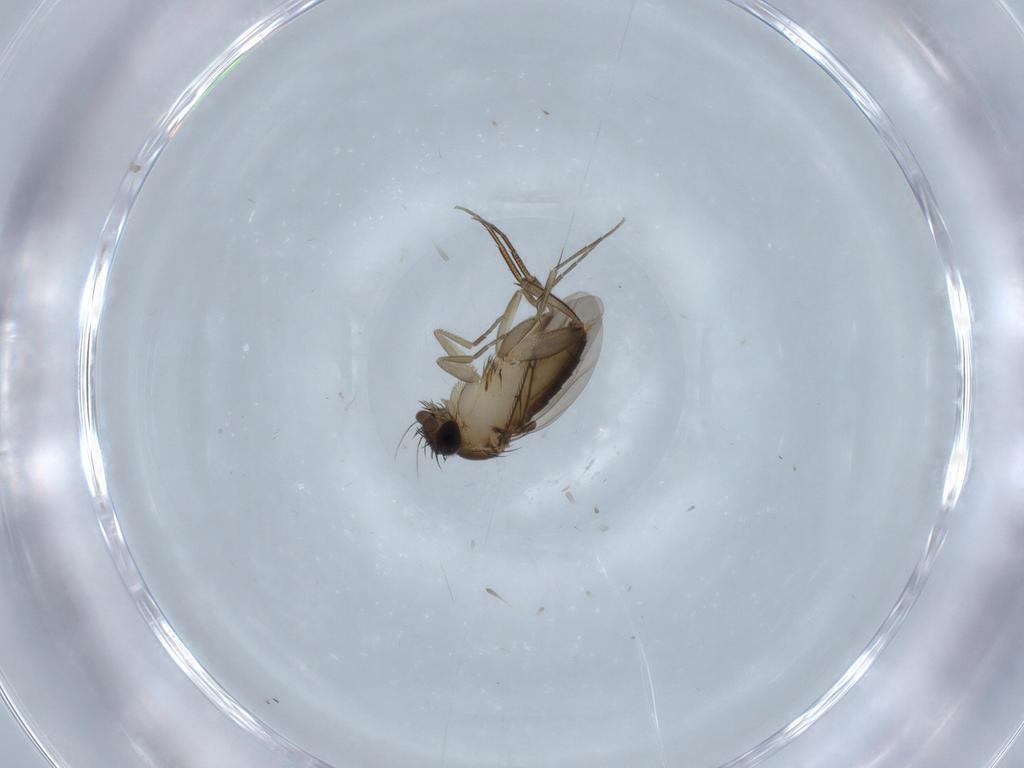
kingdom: Animalia
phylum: Arthropoda
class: Insecta
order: Diptera
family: Phoridae
